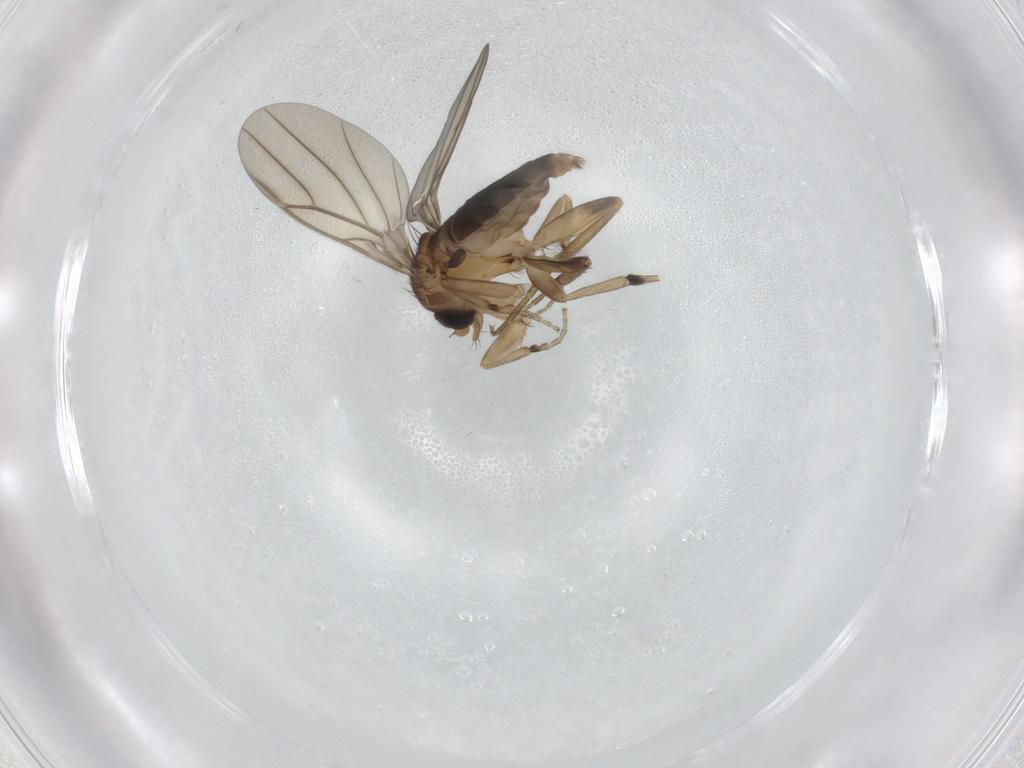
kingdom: Animalia
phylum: Arthropoda
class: Insecta
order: Diptera
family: Phoridae
